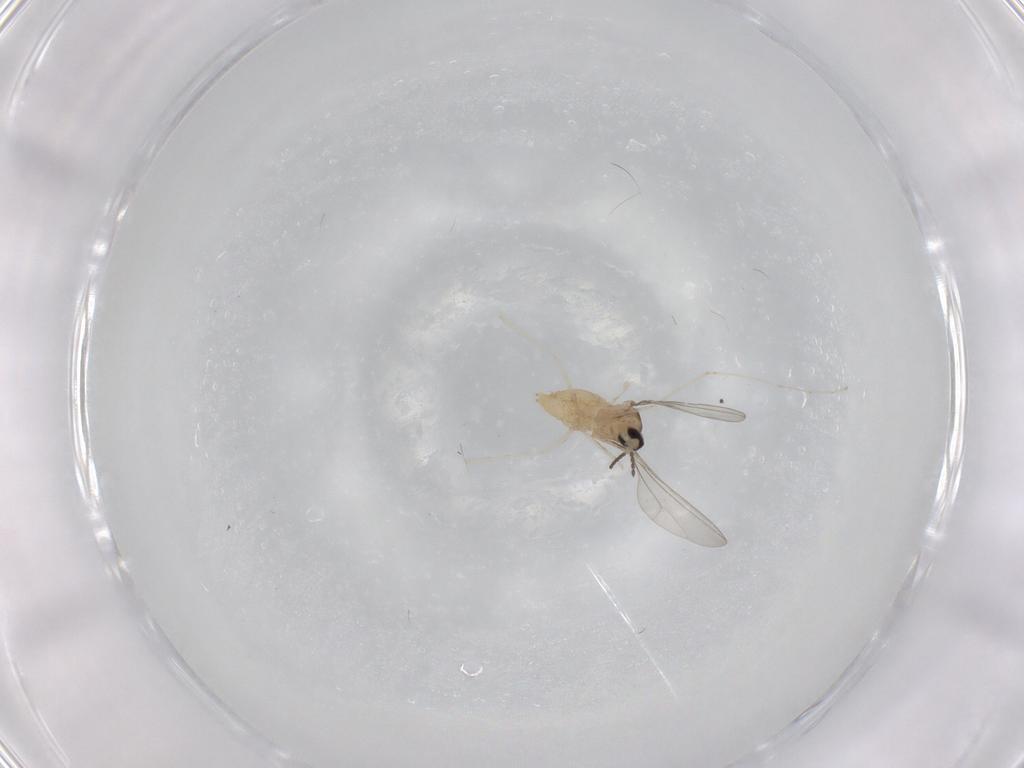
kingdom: Animalia
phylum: Arthropoda
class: Insecta
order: Diptera
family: Cecidomyiidae
